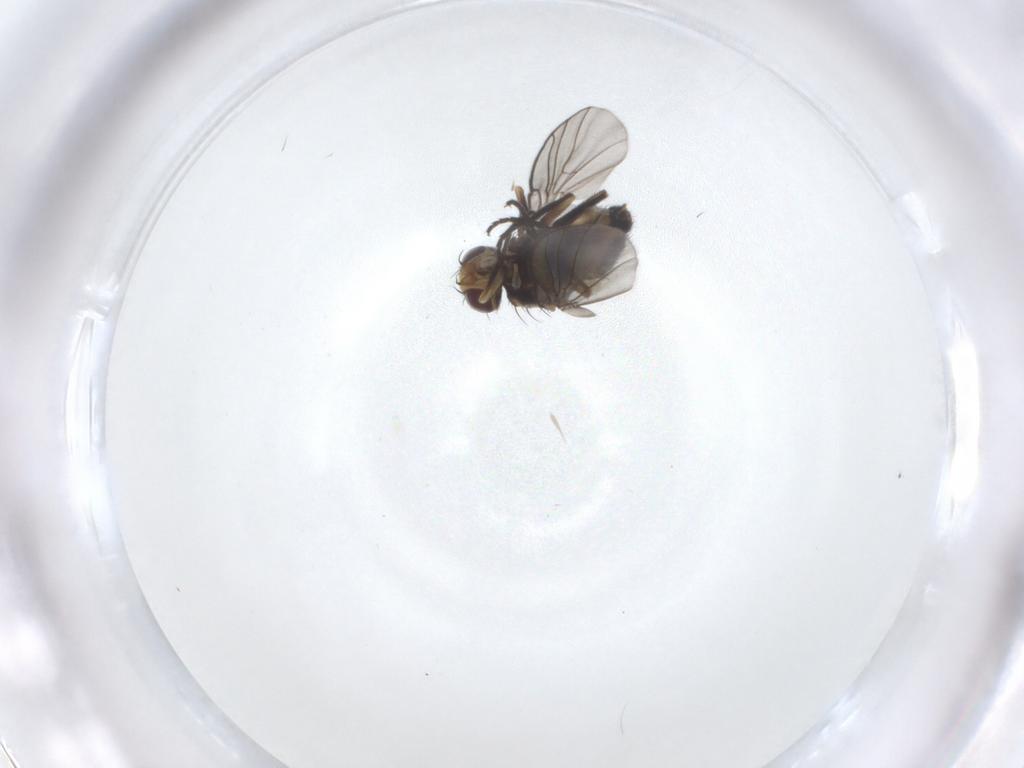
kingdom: Animalia
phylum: Arthropoda
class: Insecta
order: Diptera
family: Agromyzidae
